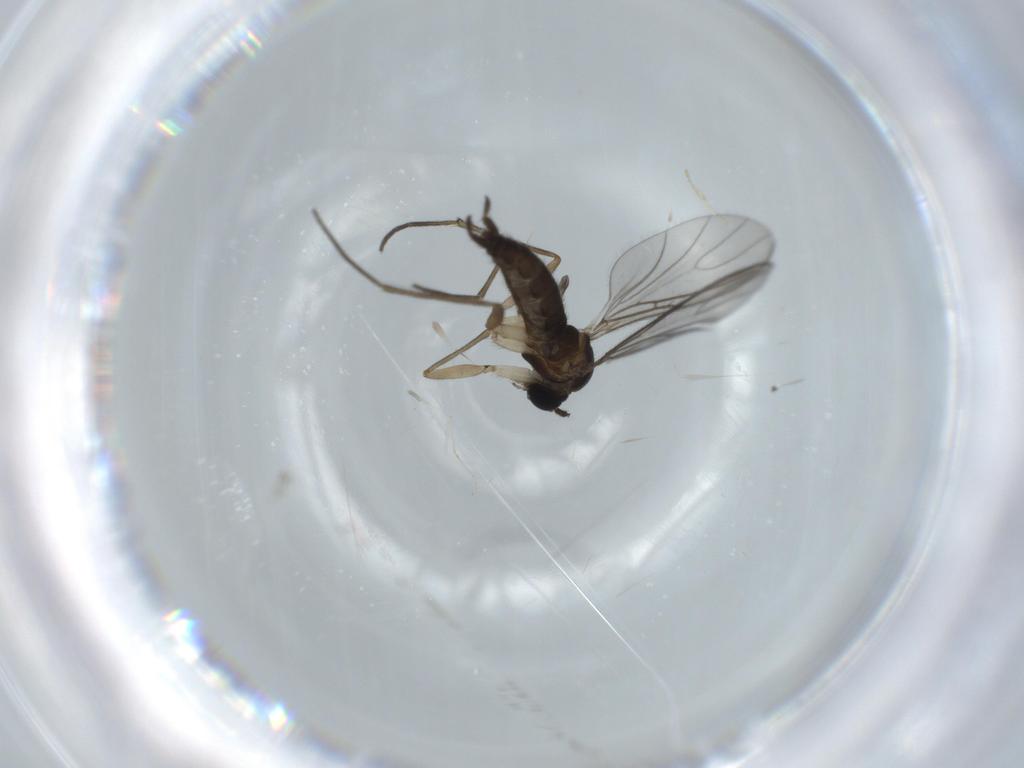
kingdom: Animalia
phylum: Arthropoda
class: Insecta
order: Diptera
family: Sciaridae
